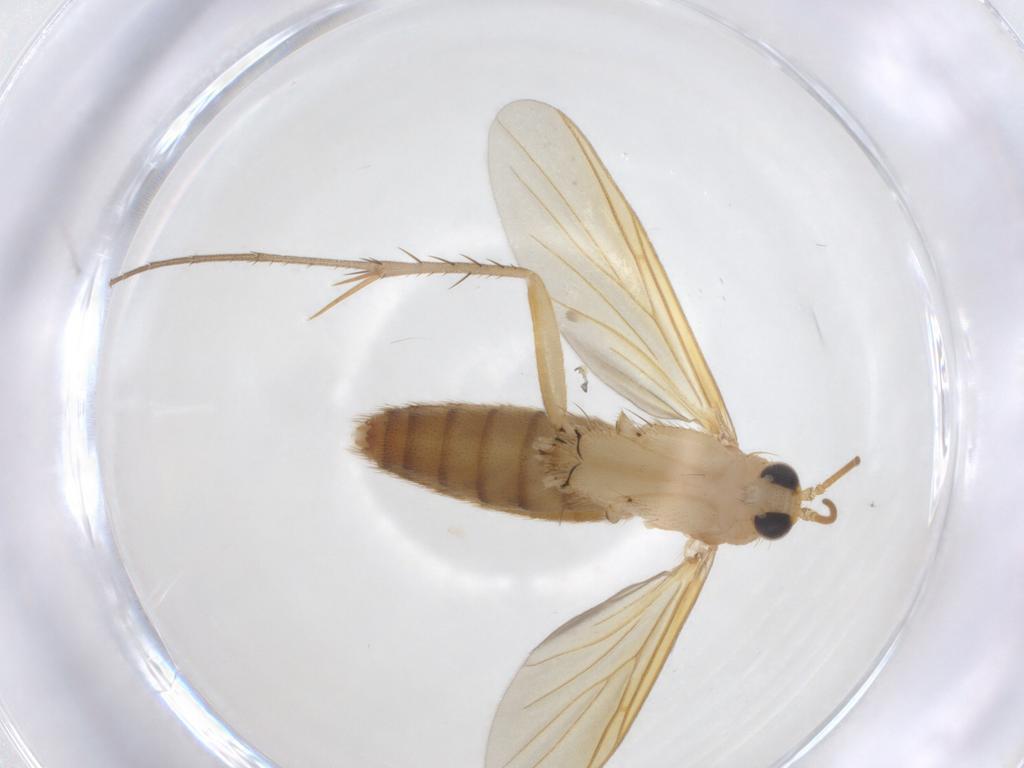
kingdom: Animalia
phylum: Arthropoda
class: Insecta
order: Diptera
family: Mycetophilidae
